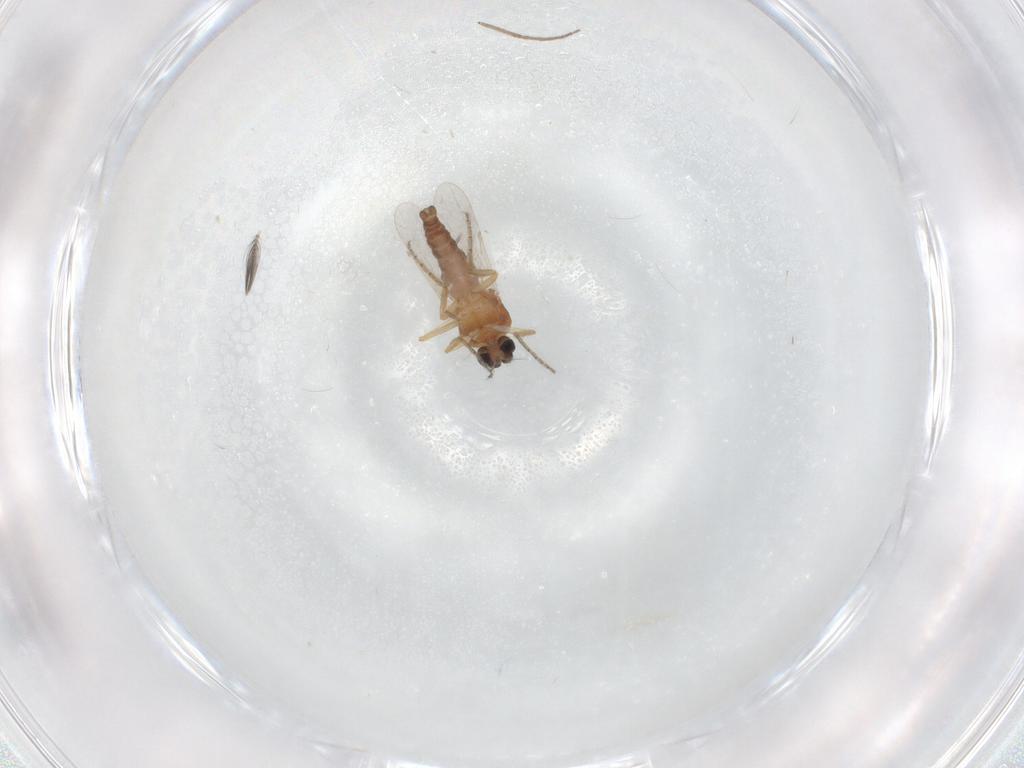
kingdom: Animalia
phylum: Arthropoda
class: Insecta
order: Diptera
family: Ceratopogonidae
